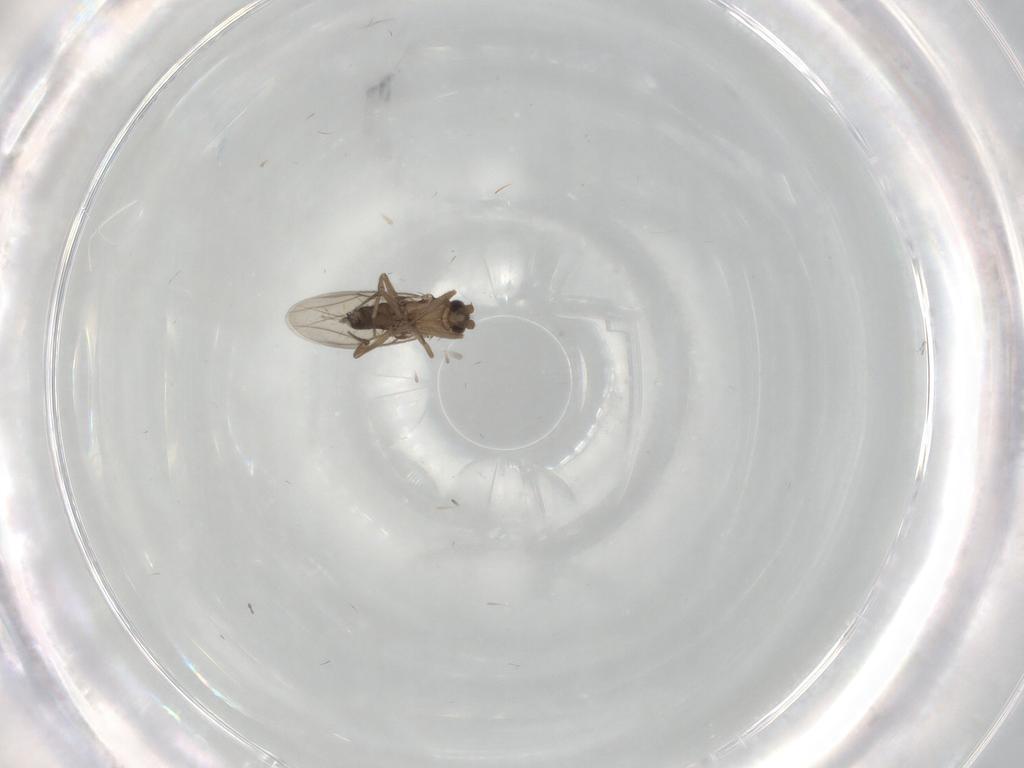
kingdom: Animalia
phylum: Arthropoda
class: Insecta
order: Diptera
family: Phoridae
